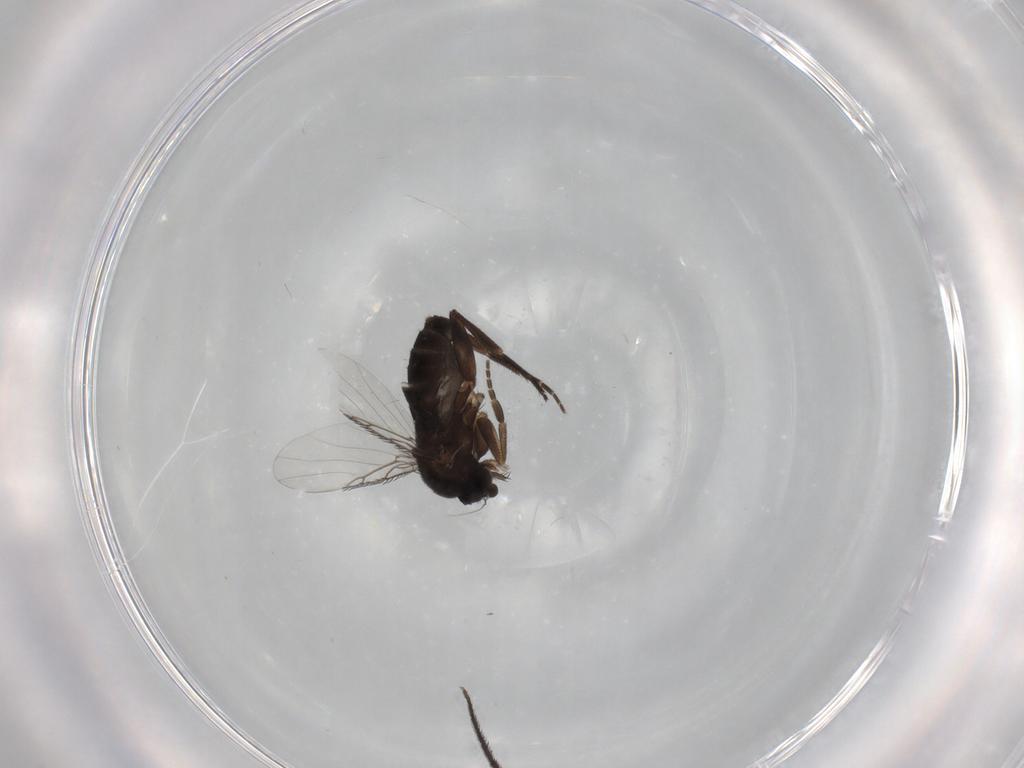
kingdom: Animalia
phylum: Arthropoda
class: Insecta
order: Diptera
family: Phoridae
